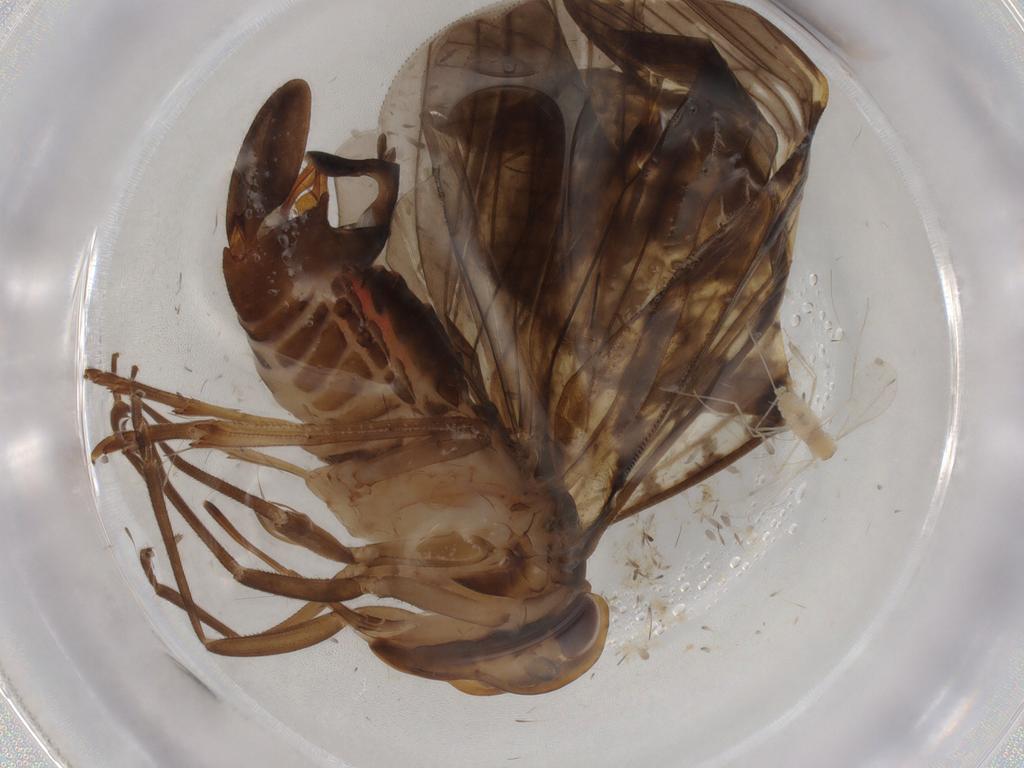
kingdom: Animalia
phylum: Arthropoda
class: Insecta
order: Hemiptera
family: Cicadellidae
